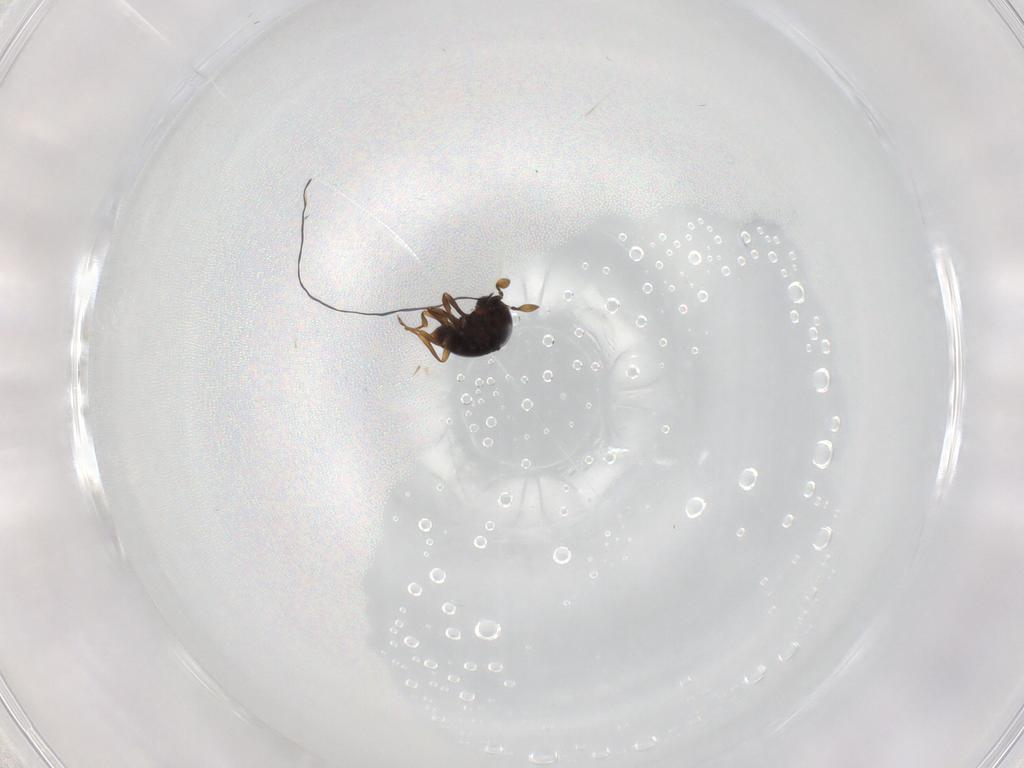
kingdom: Animalia
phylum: Arthropoda
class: Insecta
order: Hymenoptera
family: Scelionidae
